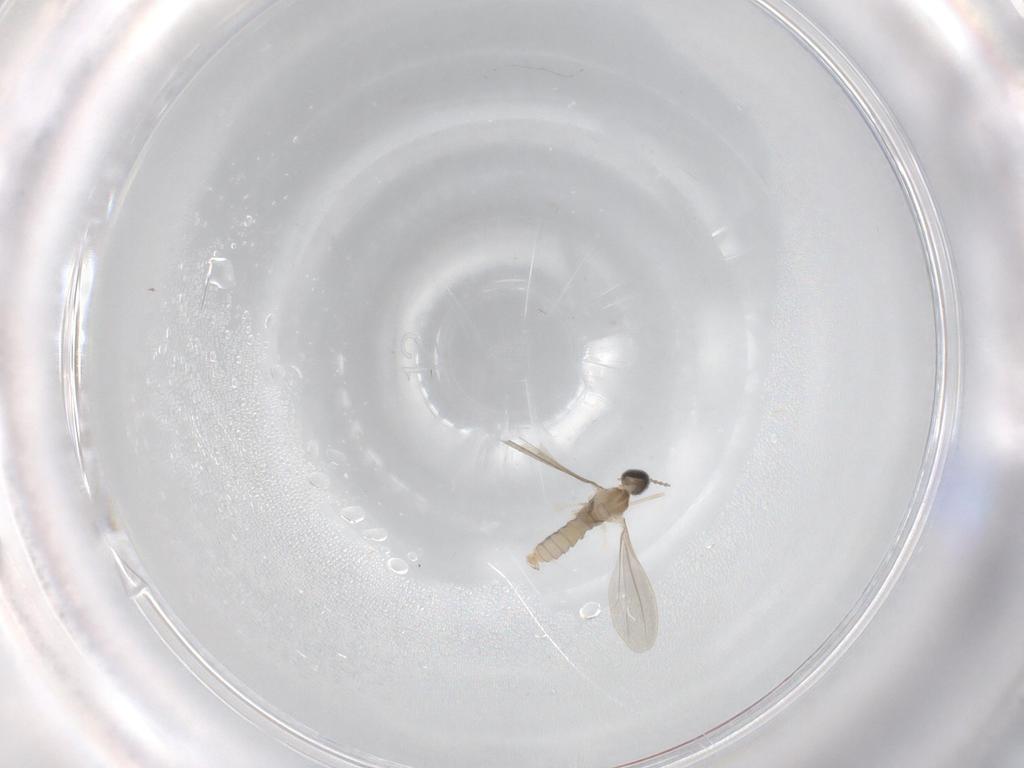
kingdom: Animalia
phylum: Arthropoda
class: Insecta
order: Diptera
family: Cecidomyiidae
